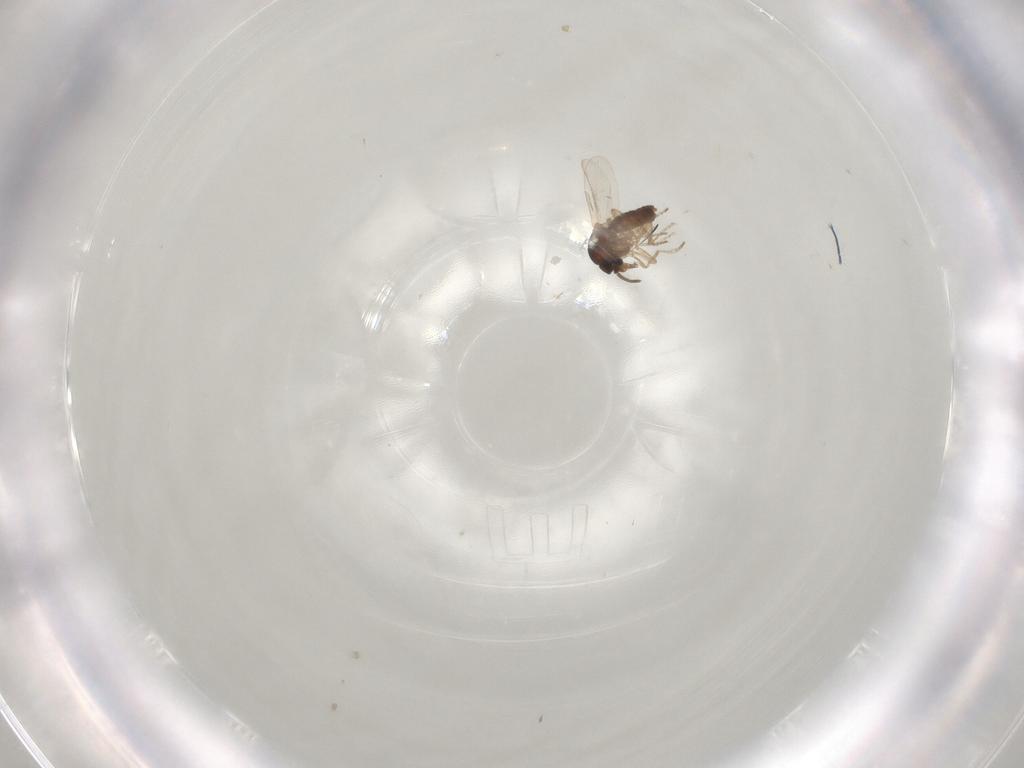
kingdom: Animalia
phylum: Arthropoda
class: Insecta
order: Diptera
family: Ceratopogonidae
